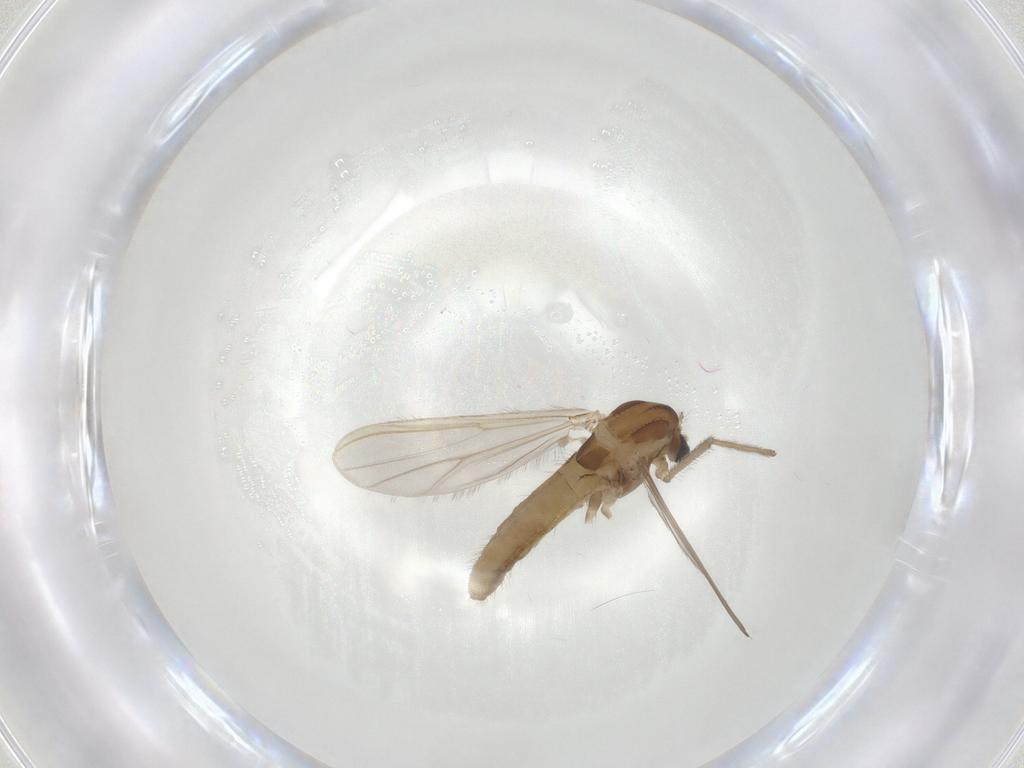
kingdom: Animalia
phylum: Arthropoda
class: Insecta
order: Diptera
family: Chironomidae
